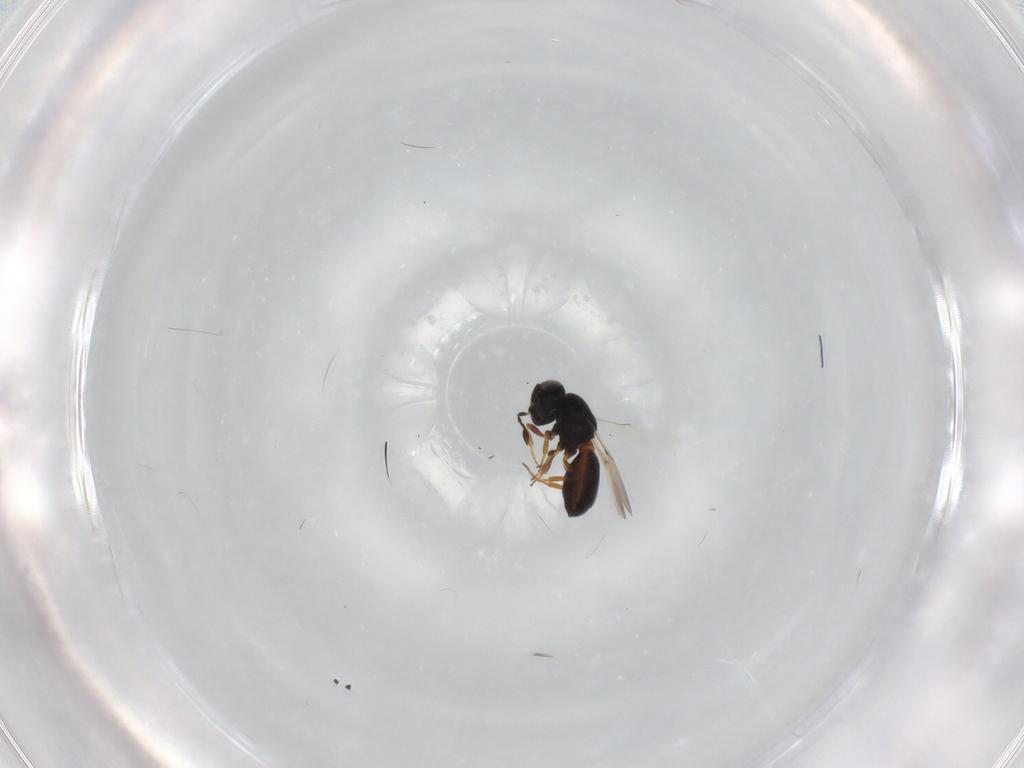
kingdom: Animalia
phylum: Arthropoda
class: Insecta
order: Hymenoptera
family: Scelionidae
